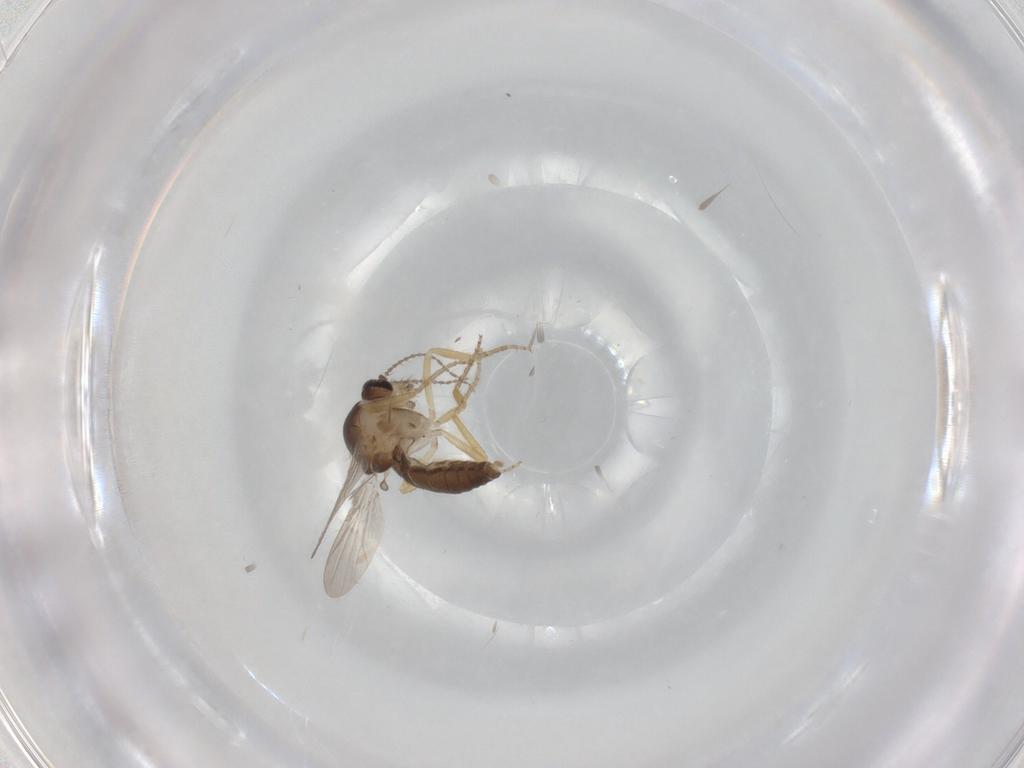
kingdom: Animalia
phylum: Arthropoda
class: Insecta
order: Diptera
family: Ceratopogonidae
